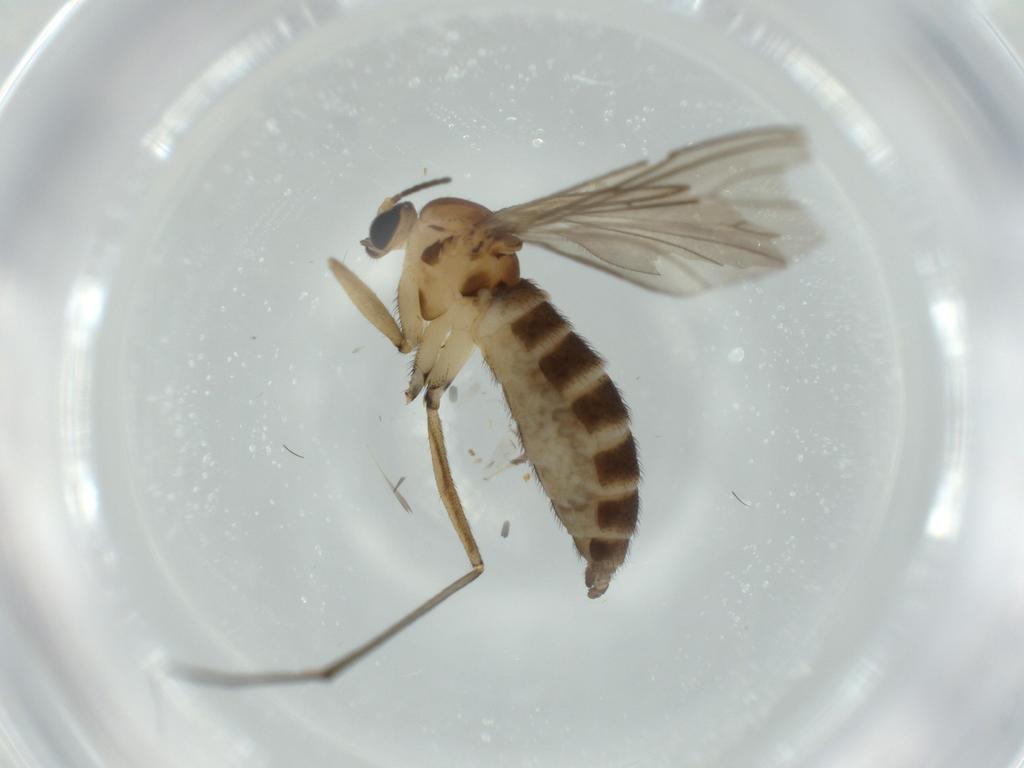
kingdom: Animalia
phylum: Arthropoda
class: Insecta
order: Diptera
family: Sciaridae
